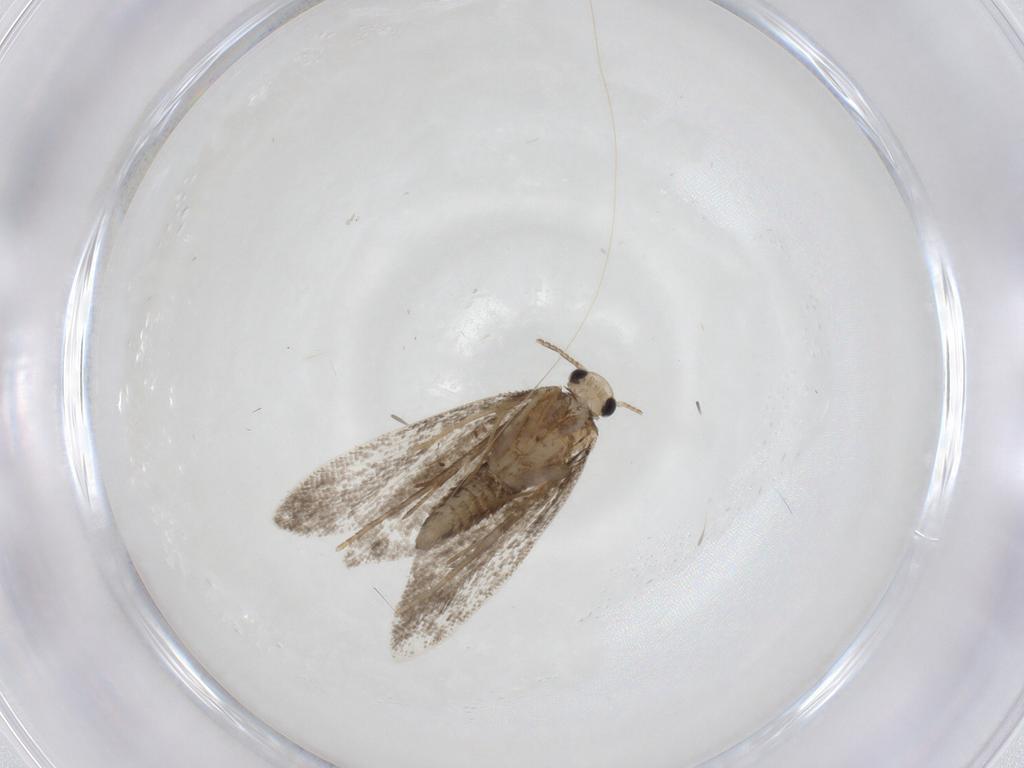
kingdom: Animalia
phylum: Arthropoda
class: Insecta
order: Lepidoptera
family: Psychidae
